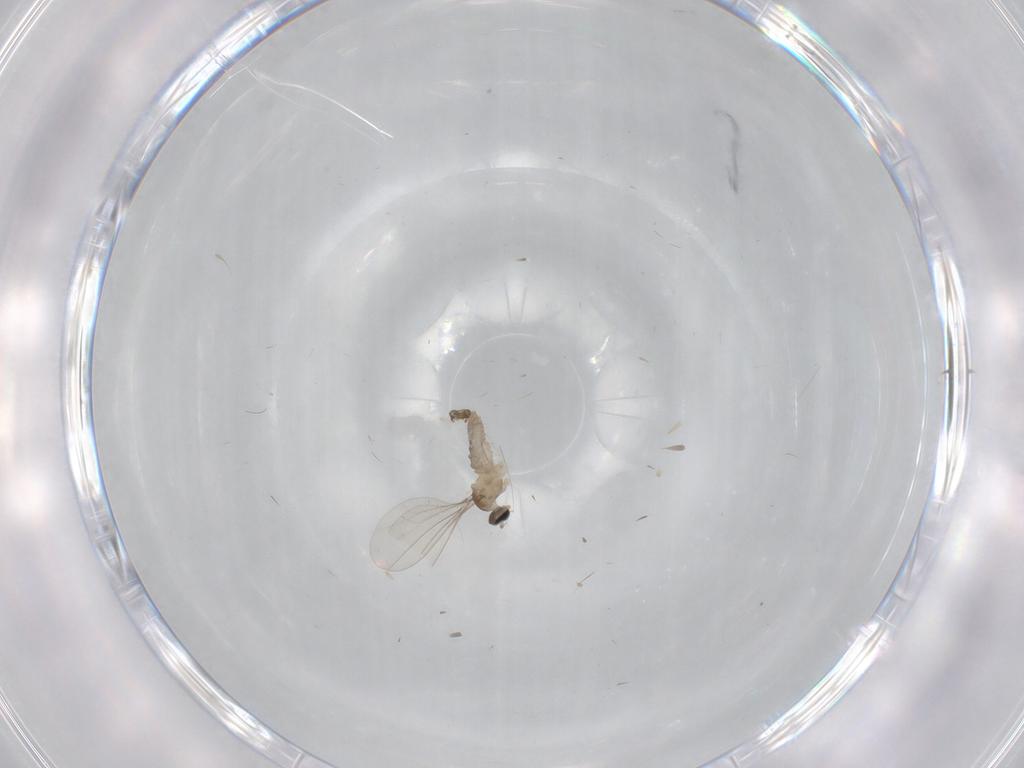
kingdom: Animalia
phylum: Arthropoda
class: Insecta
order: Diptera
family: Cecidomyiidae
